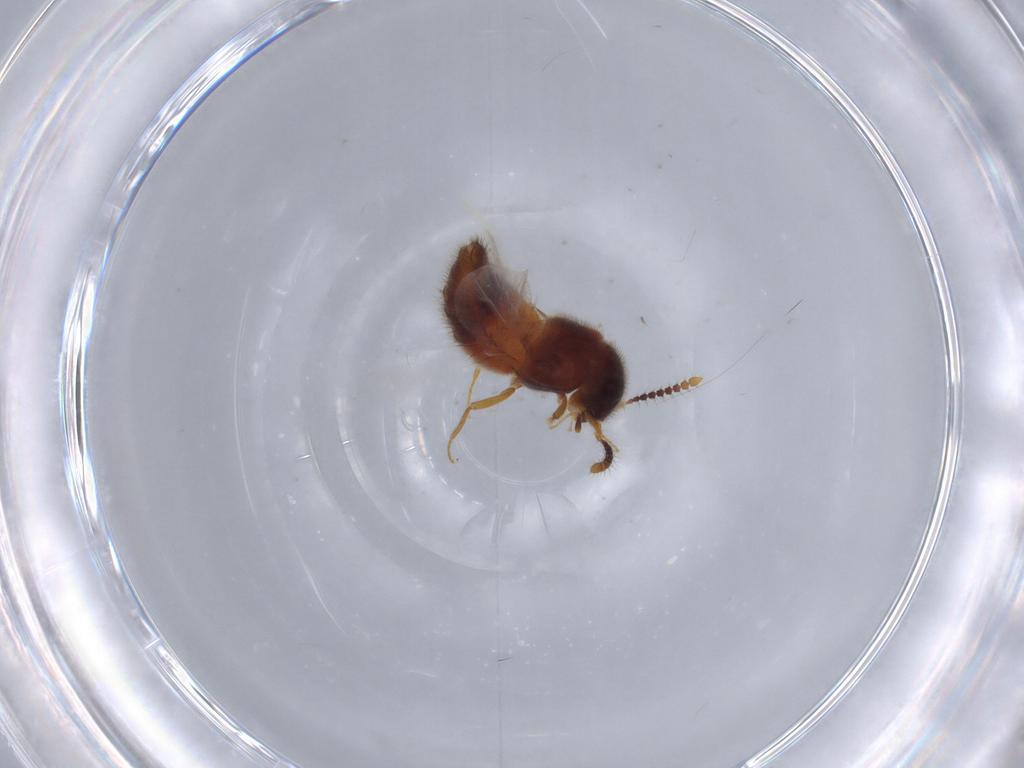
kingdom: Animalia
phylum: Arthropoda
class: Insecta
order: Coleoptera
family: Staphylinidae
